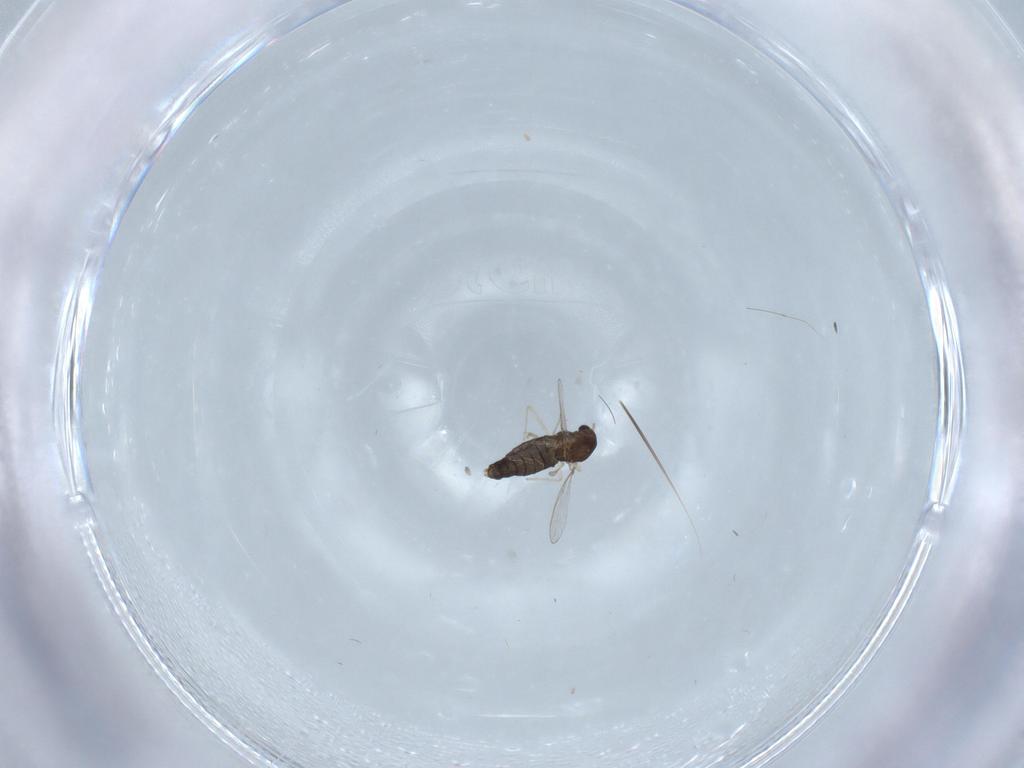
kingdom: Animalia
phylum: Arthropoda
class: Insecta
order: Diptera
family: Chironomidae
